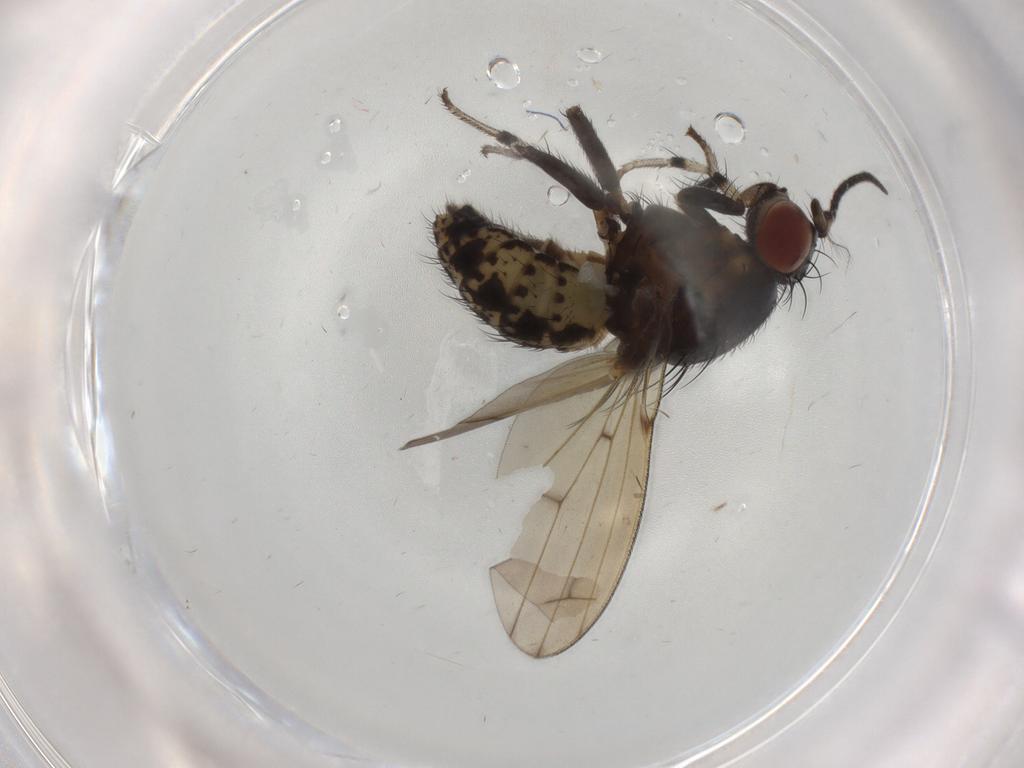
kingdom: Animalia
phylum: Arthropoda
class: Insecta
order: Diptera
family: Sciaridae
